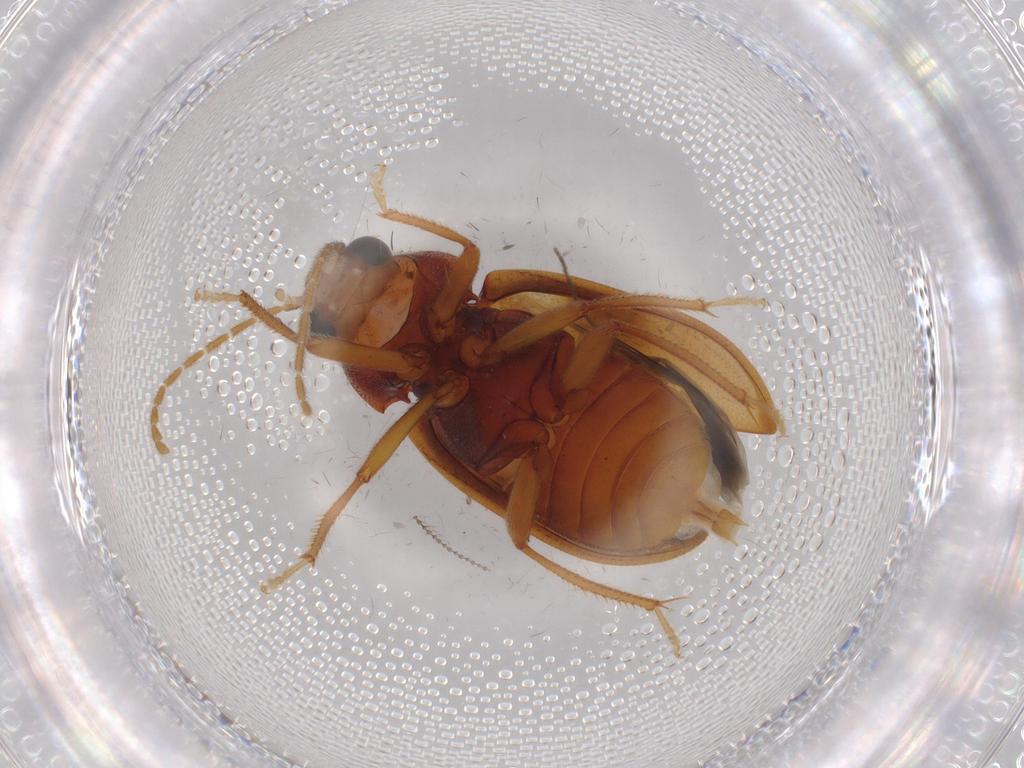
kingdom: Animalia
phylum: Arthropoda
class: Insecta
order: Coleoptera
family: Ptilodactylidae
